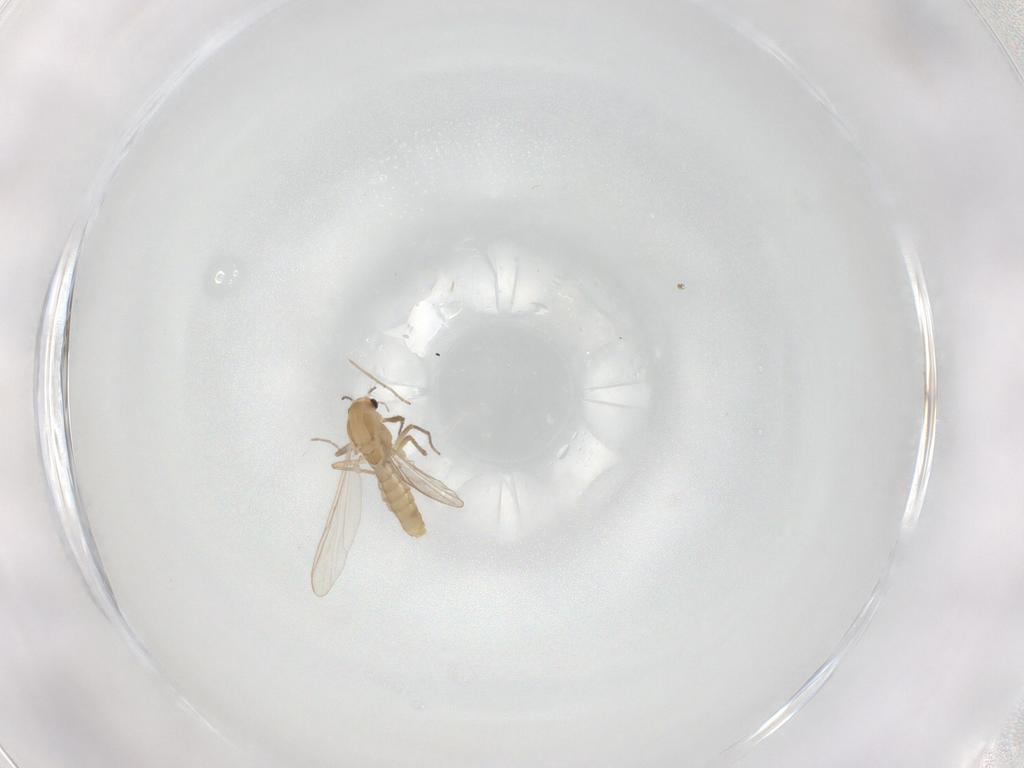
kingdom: Animalia
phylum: Arthropoda
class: Insecta
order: Diptera
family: Chironomidae
